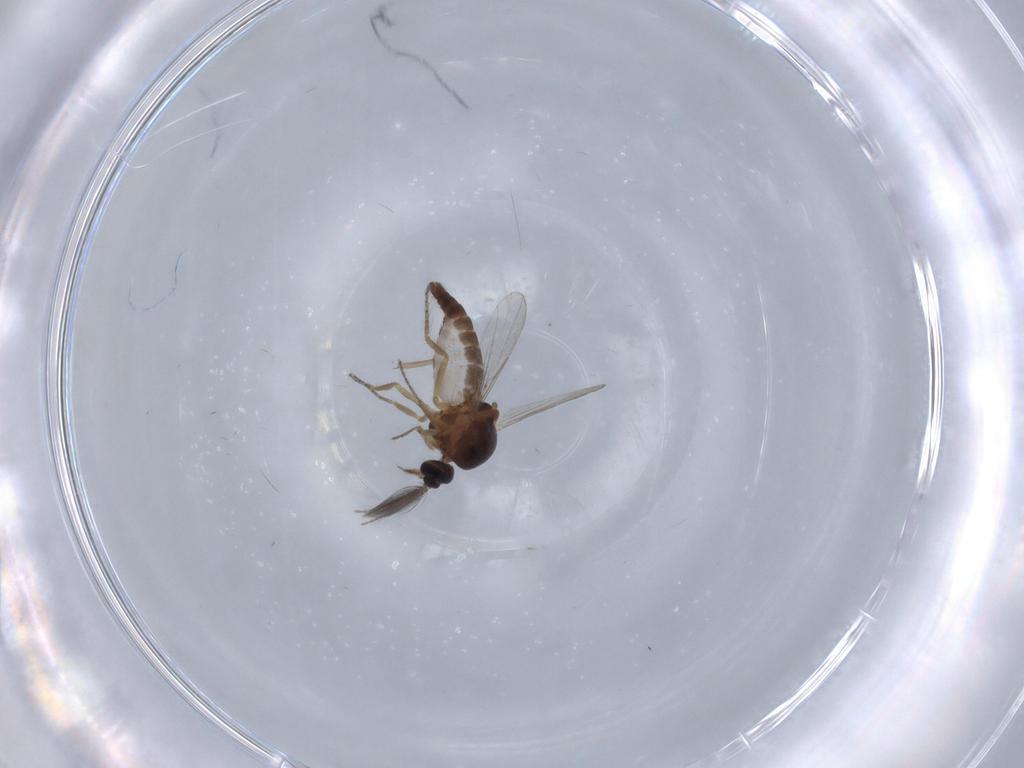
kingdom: Animalia
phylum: Arthropoda
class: Insecta
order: Diptera
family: Ceratopogonidae
